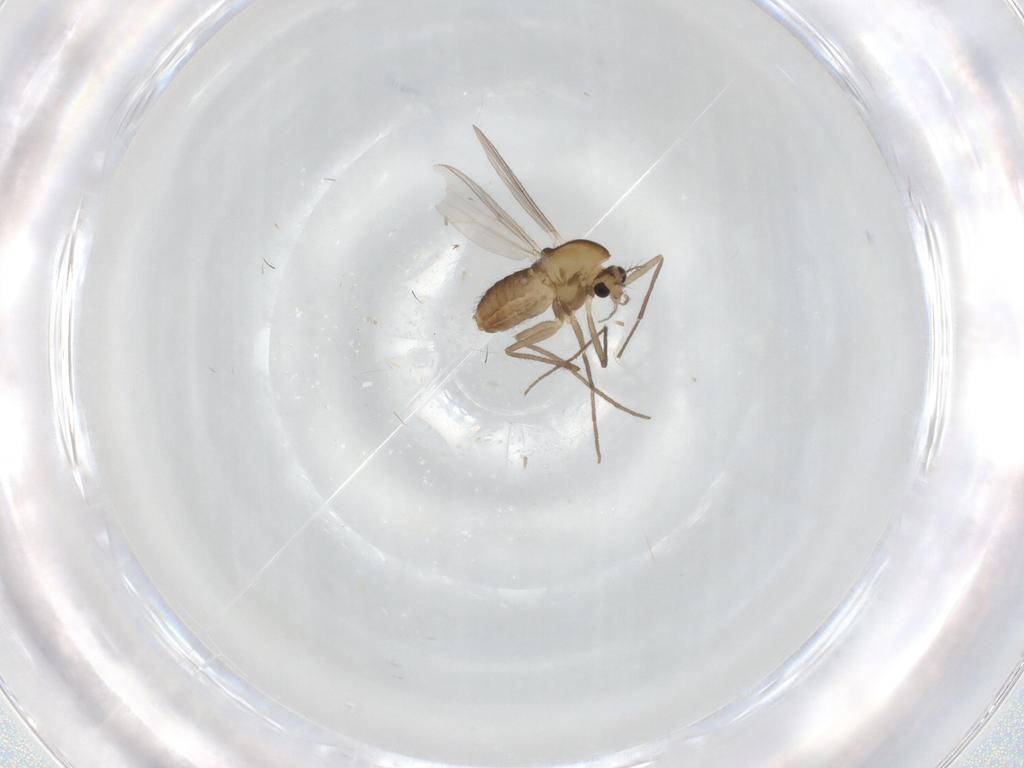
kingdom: Animalia
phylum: Arthropoda
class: Insecta
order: Diptera
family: Chironomidae
